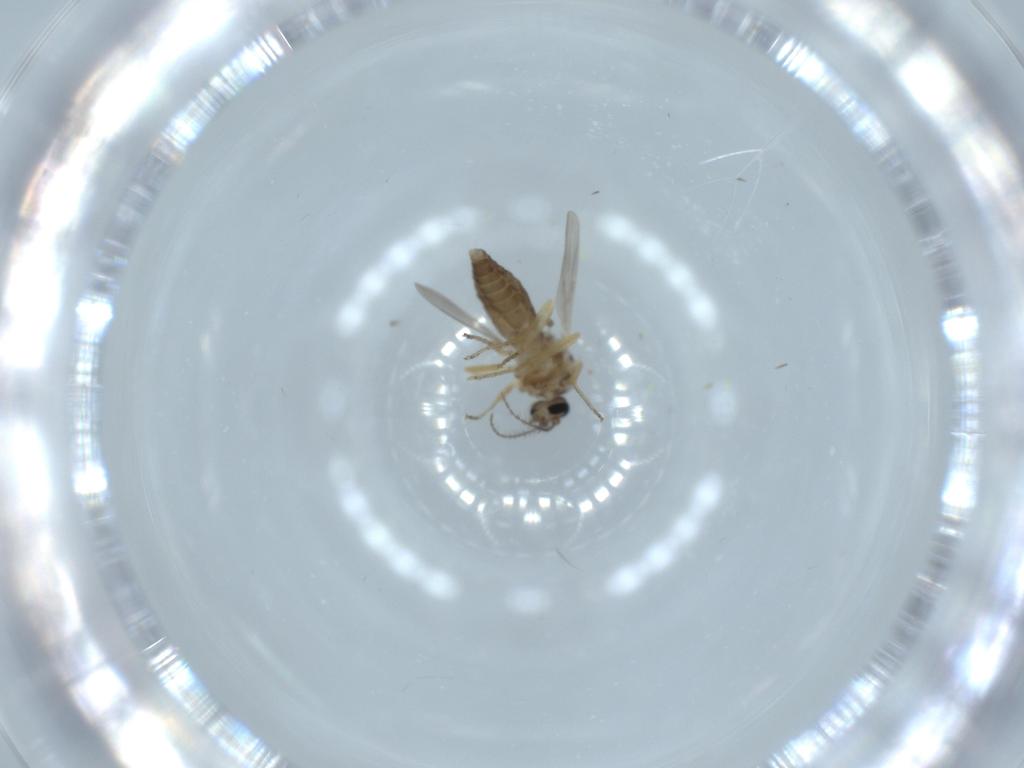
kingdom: Animalia
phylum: Arthropoda
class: Insecta
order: Diptera
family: Ceratopogonidae
